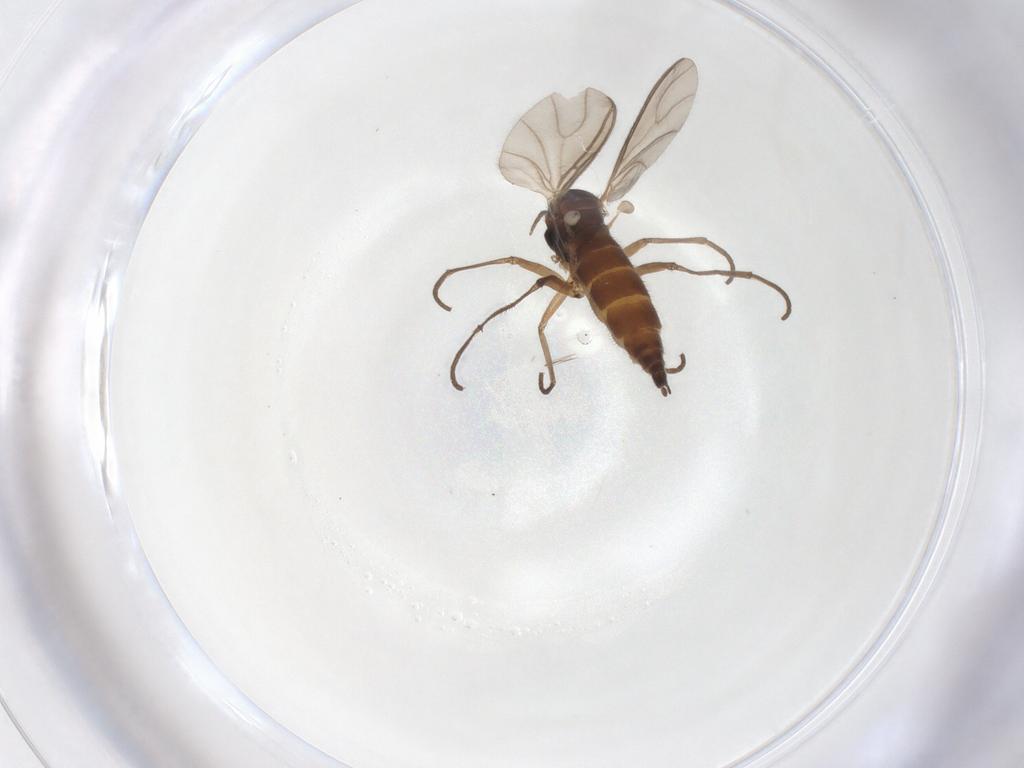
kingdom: Animalia
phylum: Arthropoda
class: Insecta
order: Diptera
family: Sciaridae
